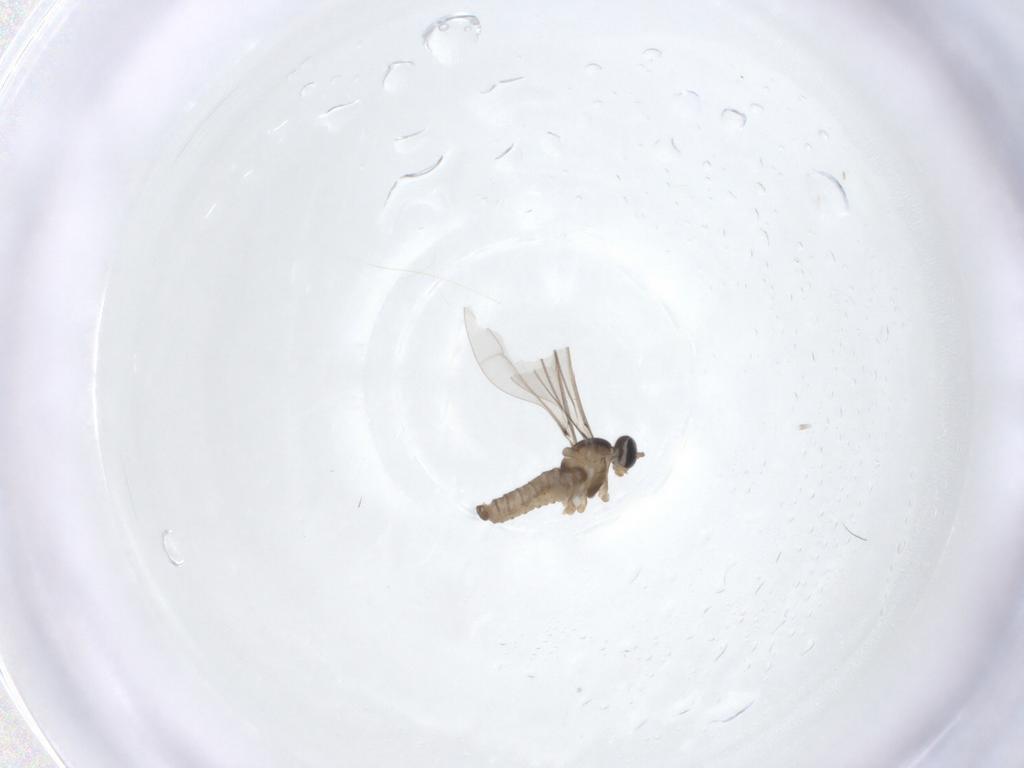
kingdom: Animalia
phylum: Arthropoda
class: Insecta
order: Diptera
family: Cecidomyiidae
